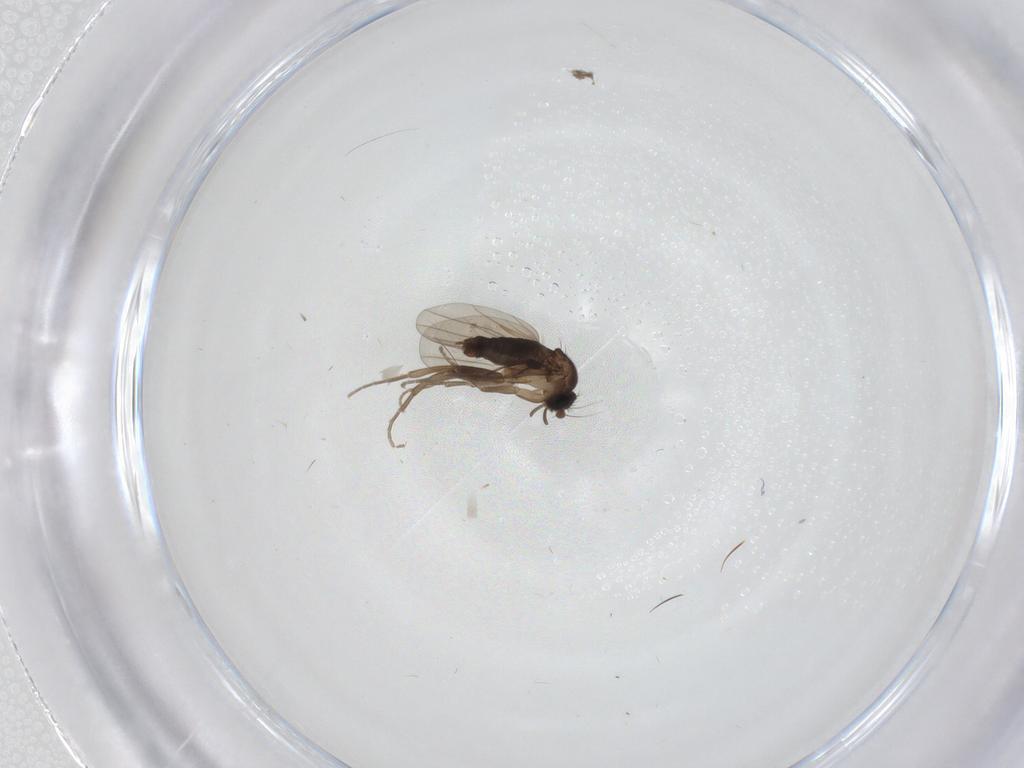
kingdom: Animalia
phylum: Arthropoda
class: Insecta
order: Diptera
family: Phoridae
